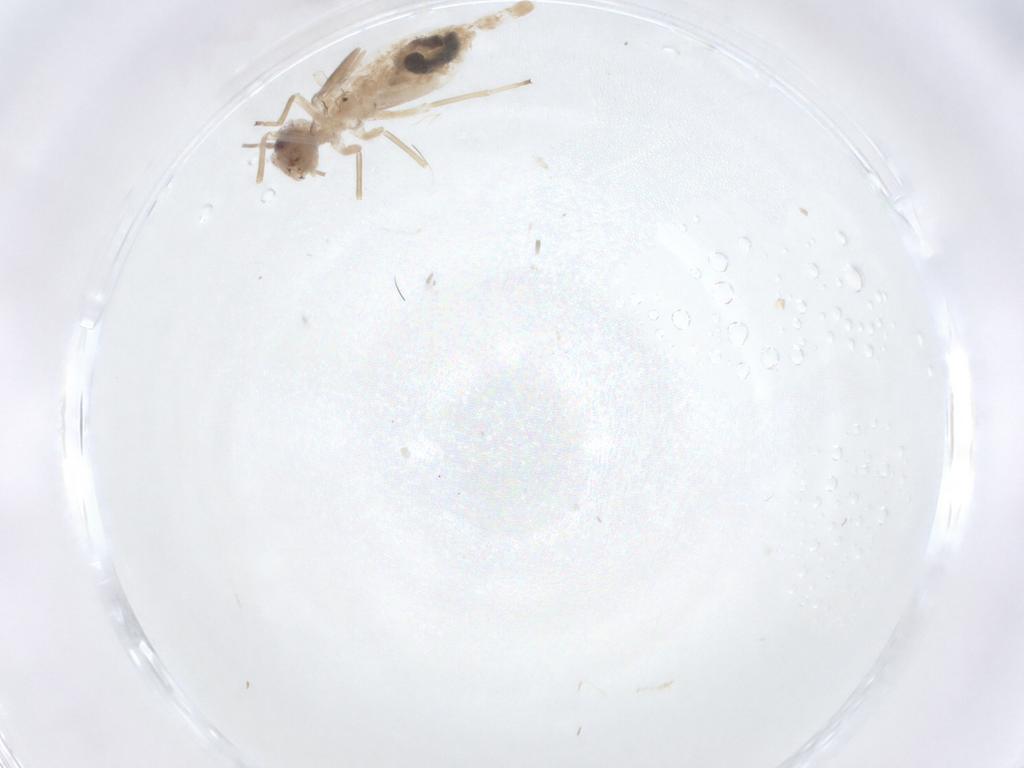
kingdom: Animalia
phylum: Arthropoda
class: Insecta
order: Psocodea
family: Caeciliusidae
